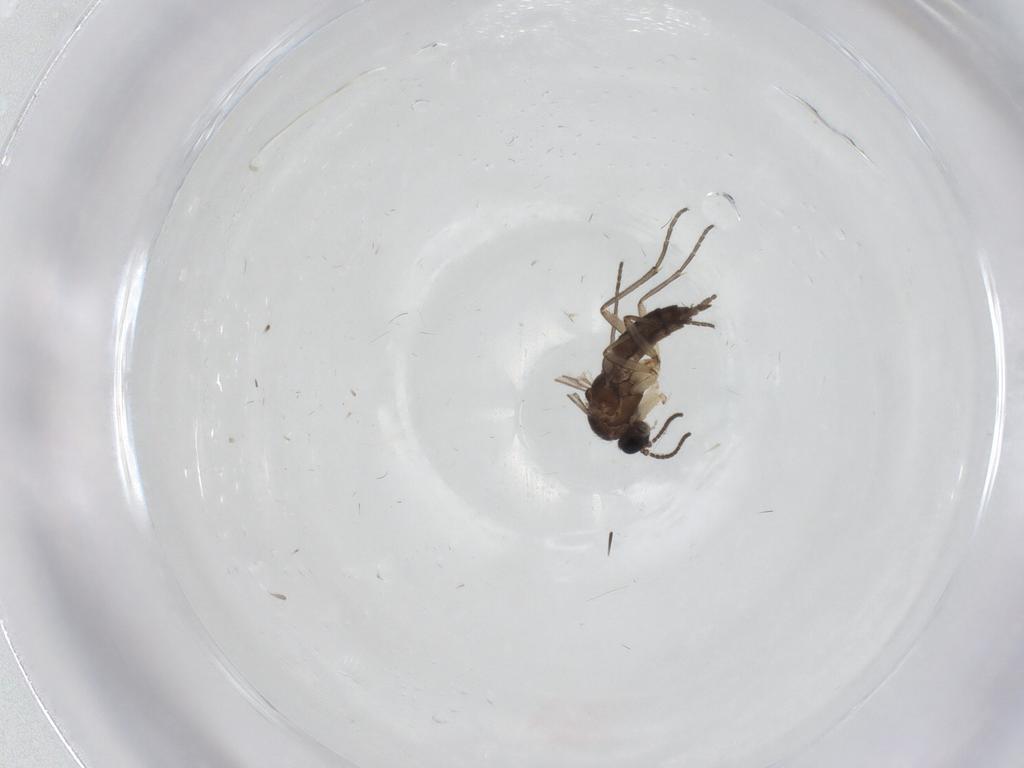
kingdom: Animalia
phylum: Arthropoda
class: Insecta
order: Diptera
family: Sciaridae
